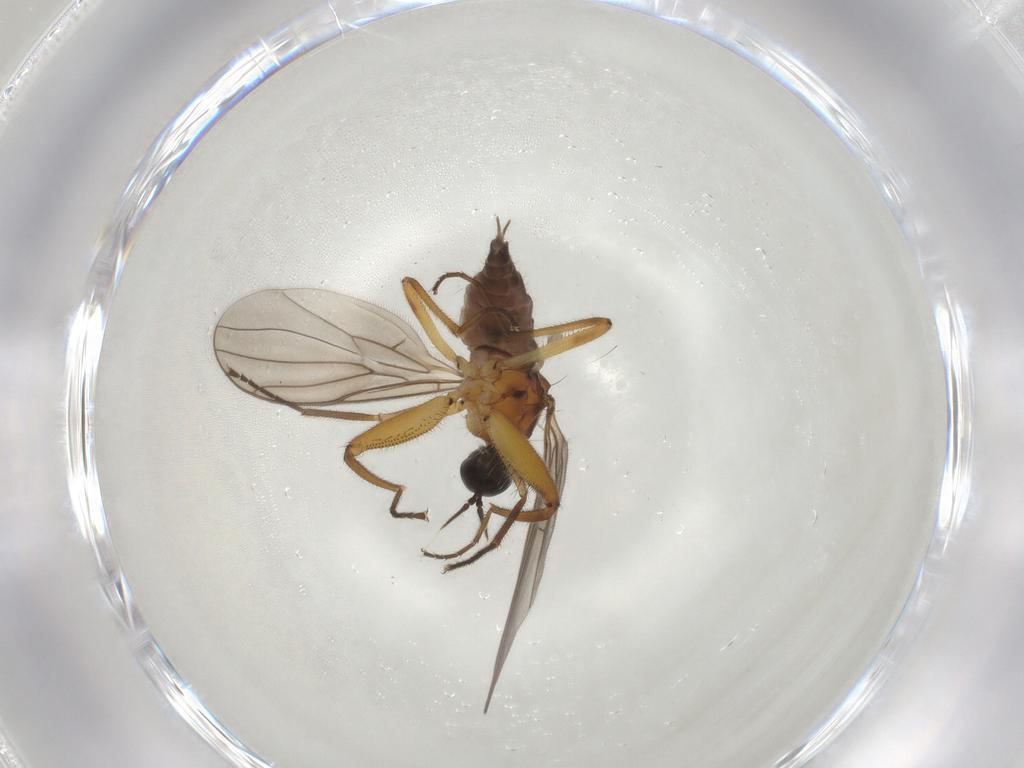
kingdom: Animalia
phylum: Arthropoda
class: Insecta
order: Diptera
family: Hybotidae
